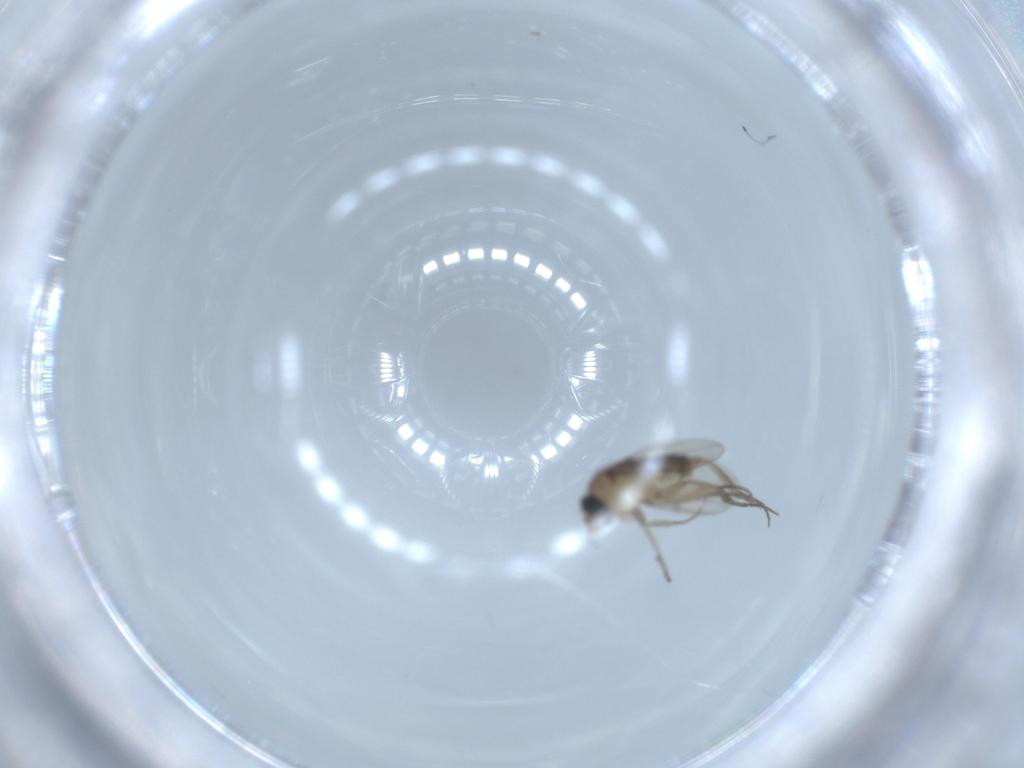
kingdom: Animalia
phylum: Arthropoda
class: Insecta
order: Diptera
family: Phoridae
